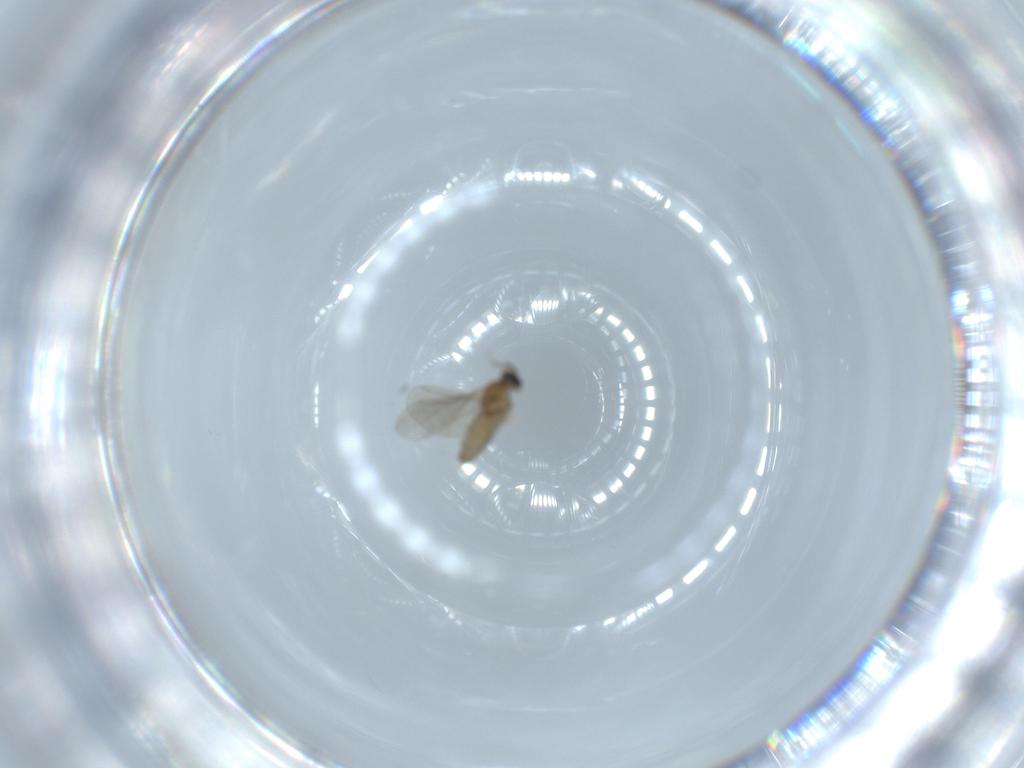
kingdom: Animalia
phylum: Arthropoda
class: Insecta
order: Diptera
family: Cecidomyiidae
